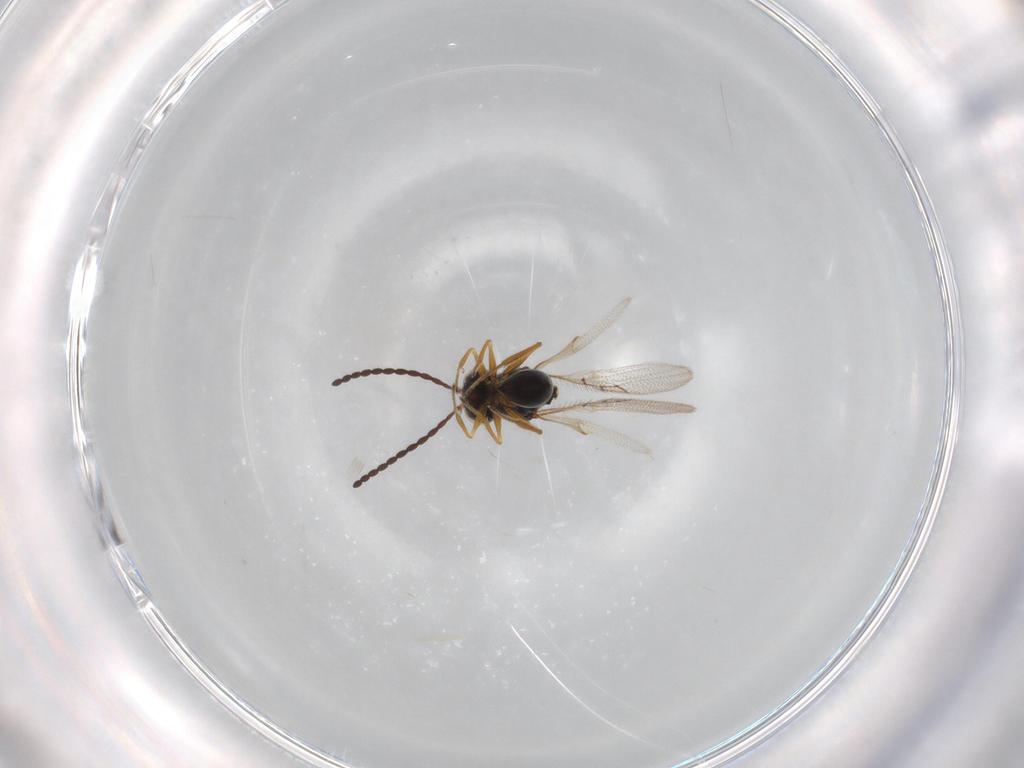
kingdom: Animalia
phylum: Arthropoda
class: Insecta
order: Hymenoptera
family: Figitidae
